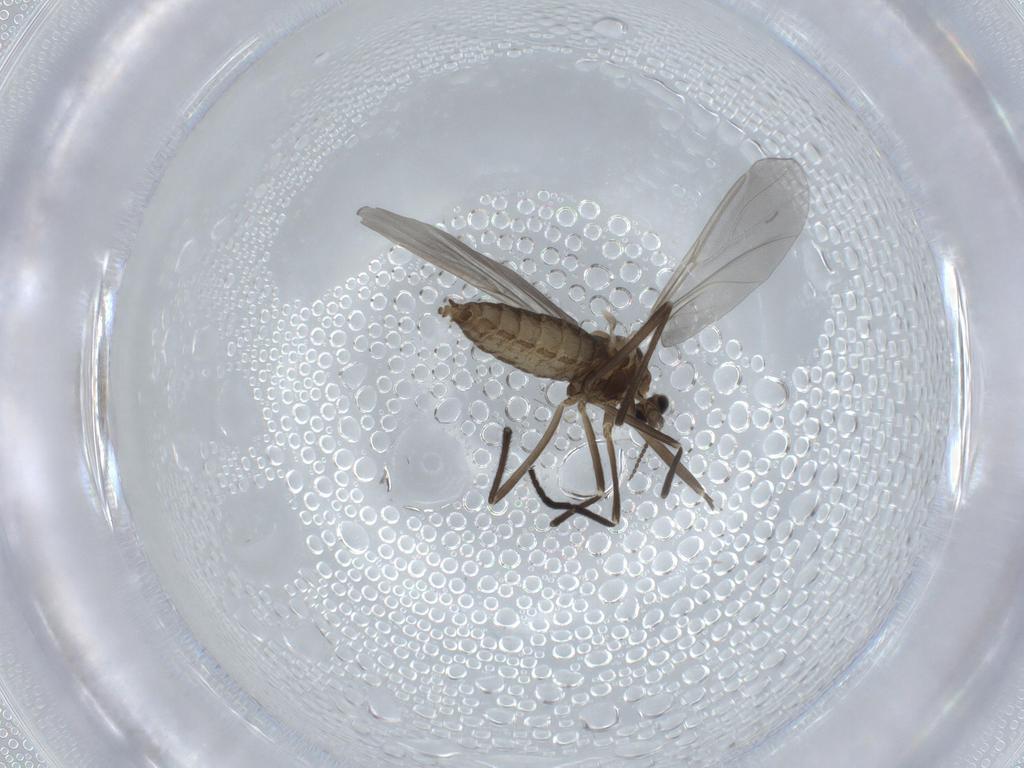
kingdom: Animalia
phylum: Arthropoda
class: Insecta
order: Diptera
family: Cecidomyiidae
